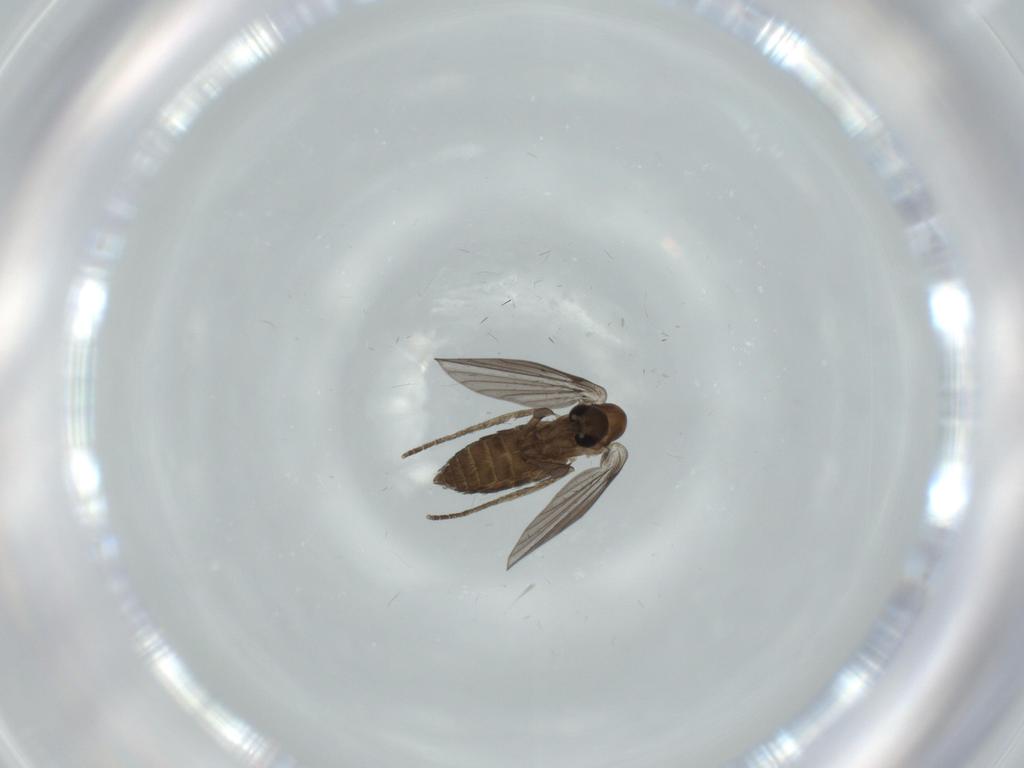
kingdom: Animalia
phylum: Arthropoda
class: Insecta
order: Diptera
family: Psychodidae
